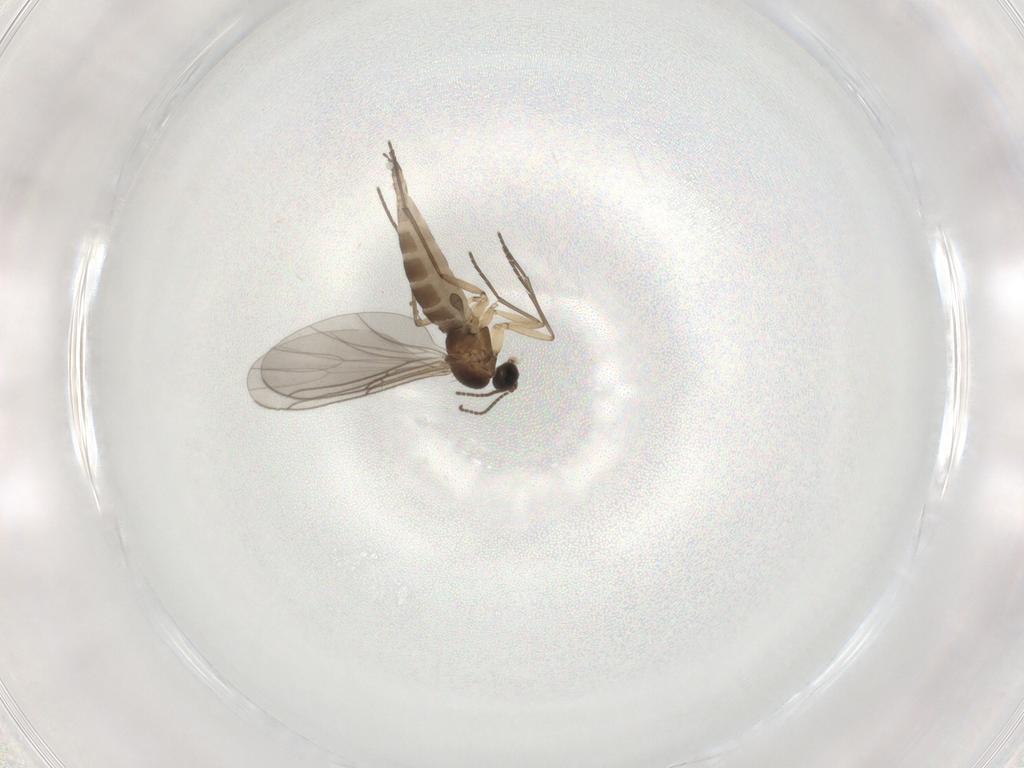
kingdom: Animalia
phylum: Arthropoda
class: Insecta
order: Diptera
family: Sciaridae
